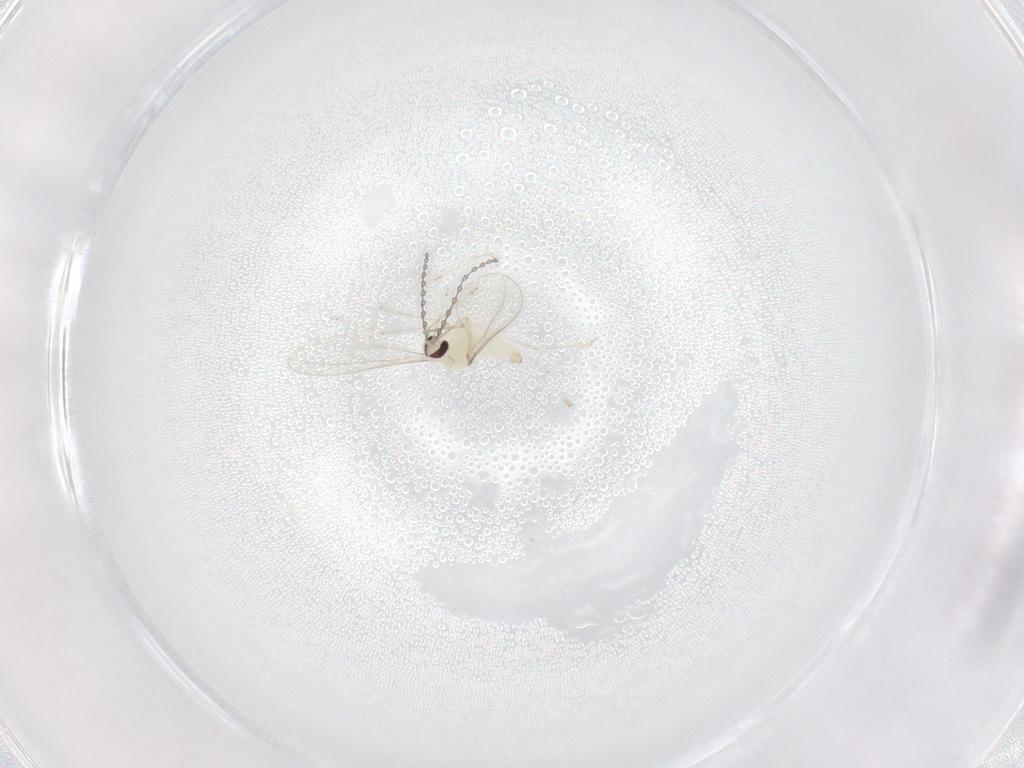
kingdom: Animalia
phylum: Arthropoda
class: Insecta
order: Diptera
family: Cecidomyiidae
